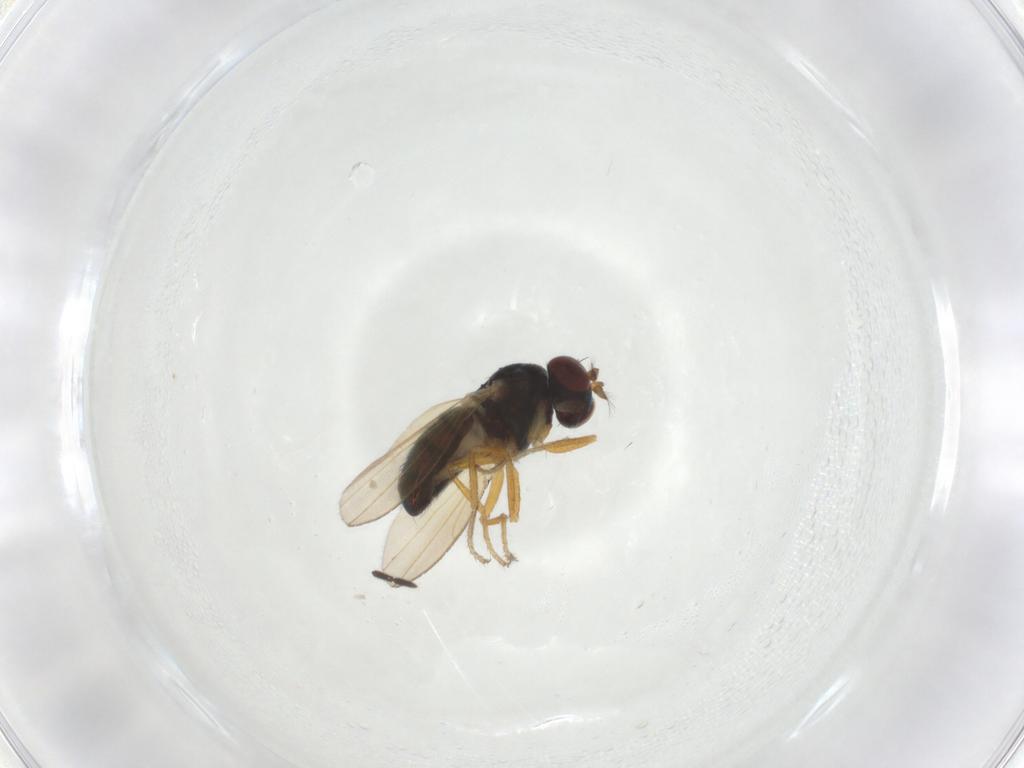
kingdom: Animalia
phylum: Arthropoda
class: Insecta
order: Diptera
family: Ephydridae
